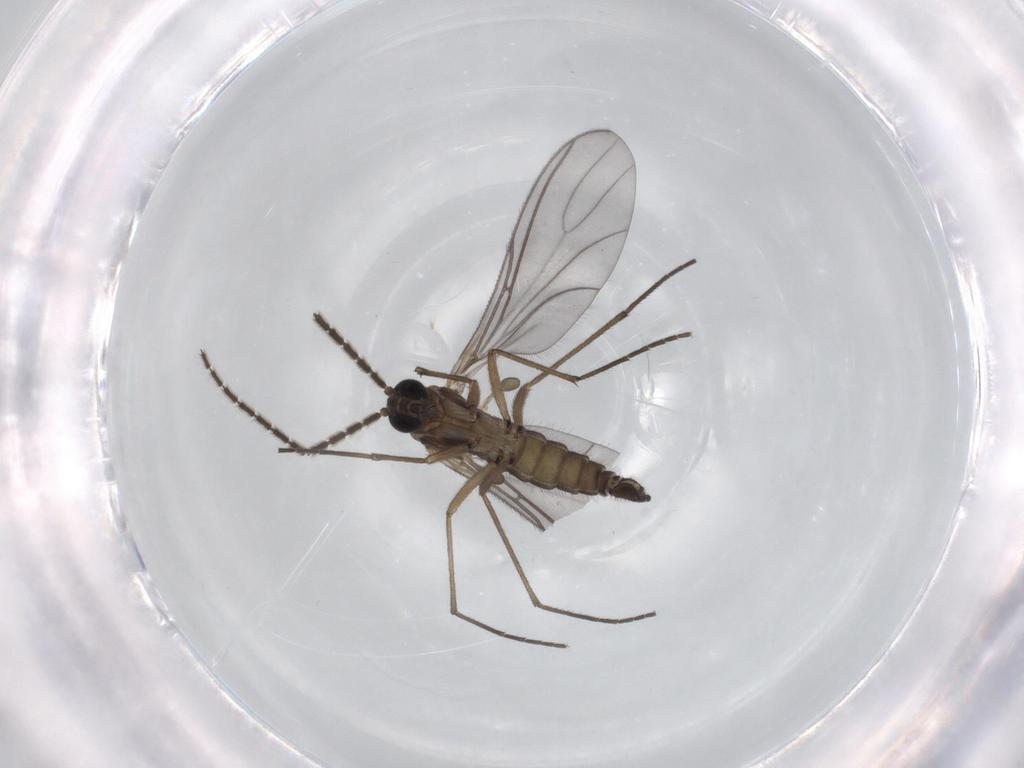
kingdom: Animalia
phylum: Arthropoda
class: Insecta
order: Diptera
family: Sciaridae
